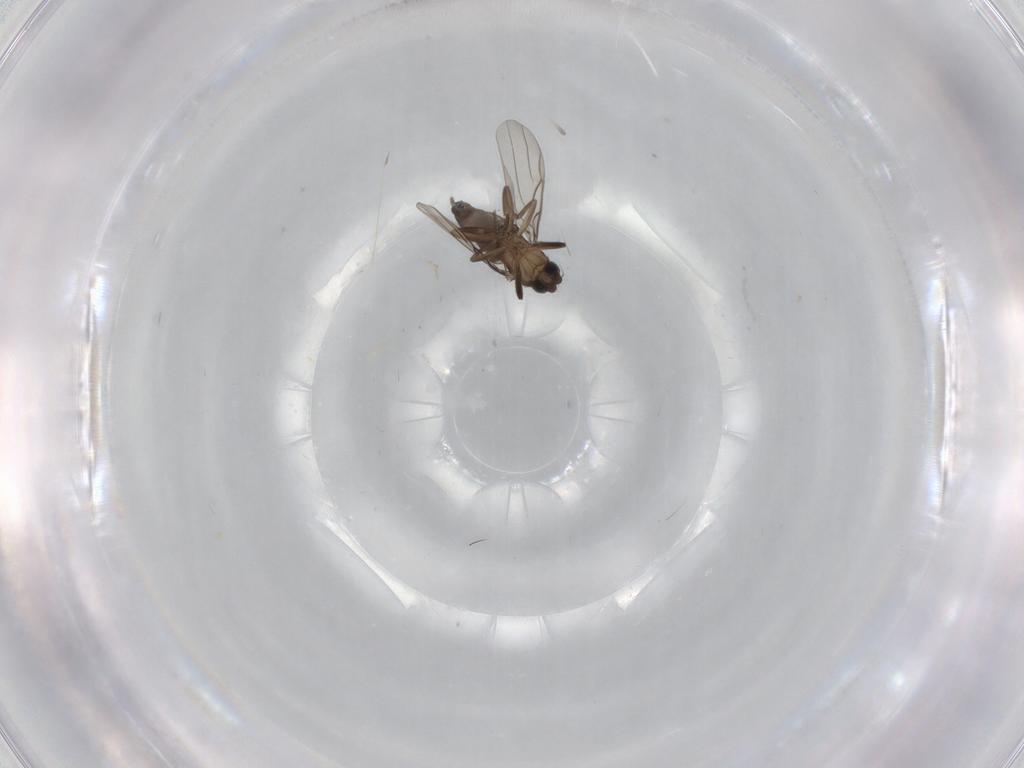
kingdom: Animalia
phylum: Arthropoda
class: Insecta
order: Diptera
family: Phoridae
